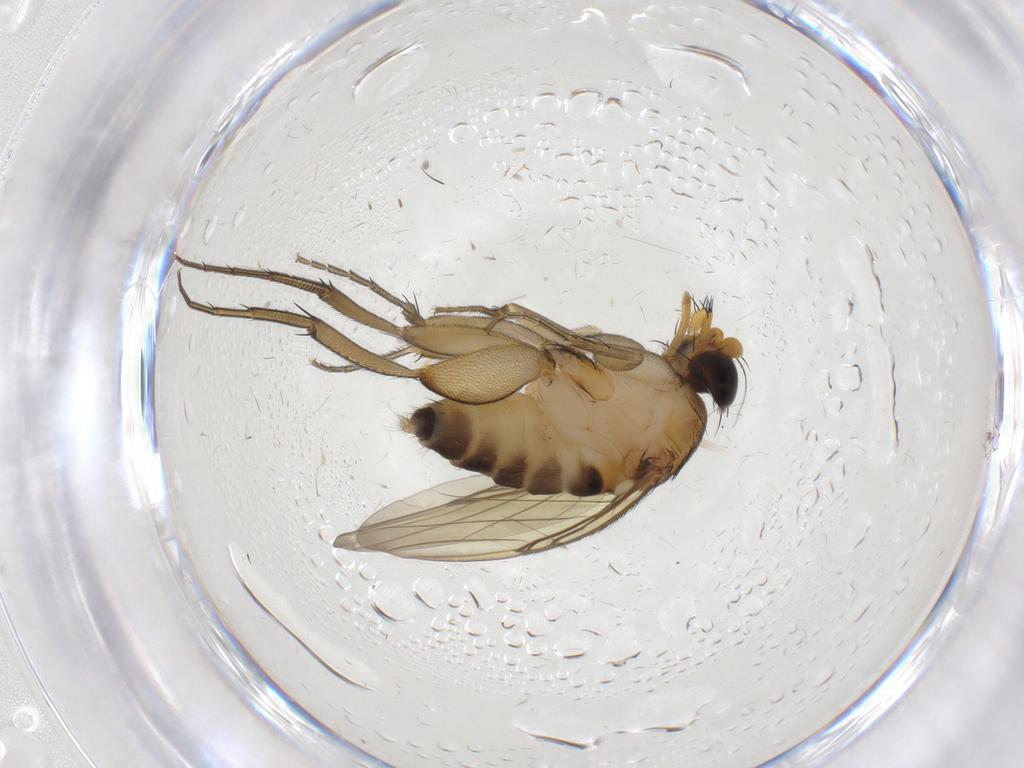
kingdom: Animalia
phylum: Arthropoda
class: Insecta
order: Diptera
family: Phoridae
